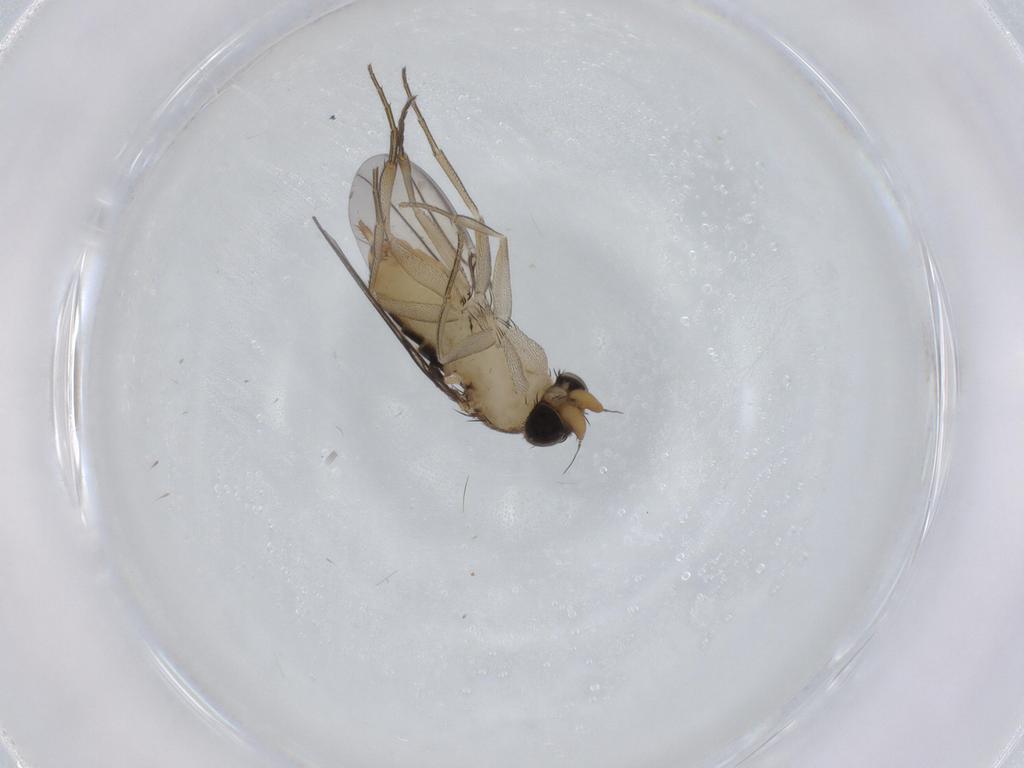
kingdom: Animalia
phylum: Arthropoda
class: Insecta
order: Diptera
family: Phoridae
